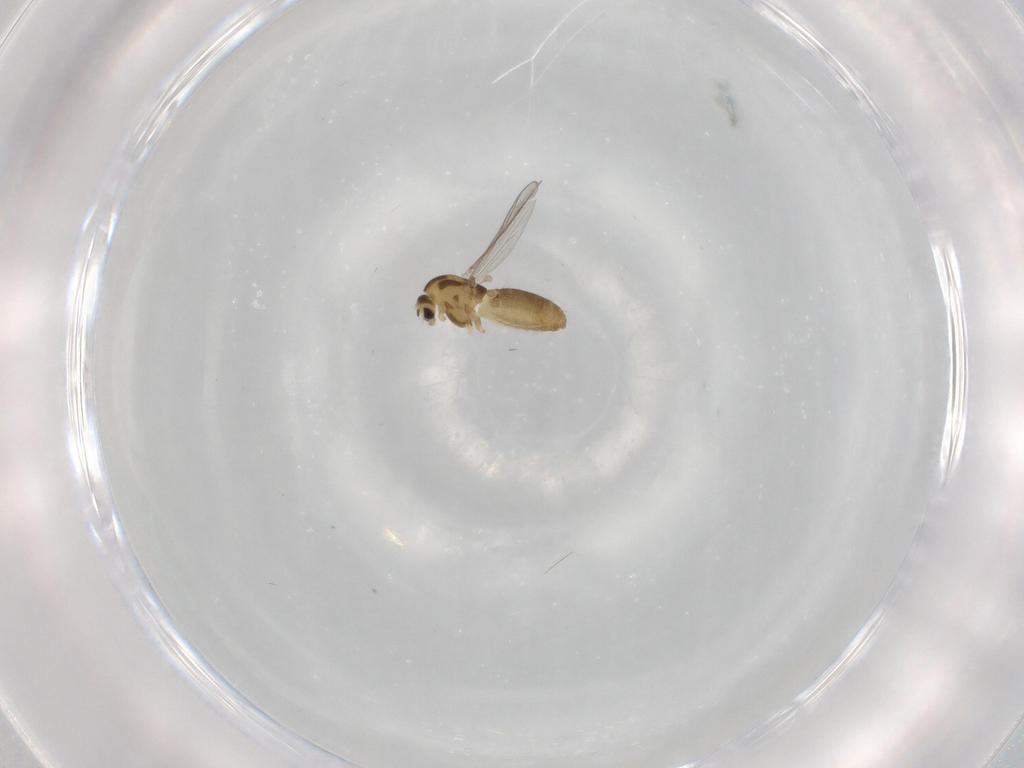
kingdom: Animalia
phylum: Arthropoda
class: Insecta
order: Diptera
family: Chironomidae
